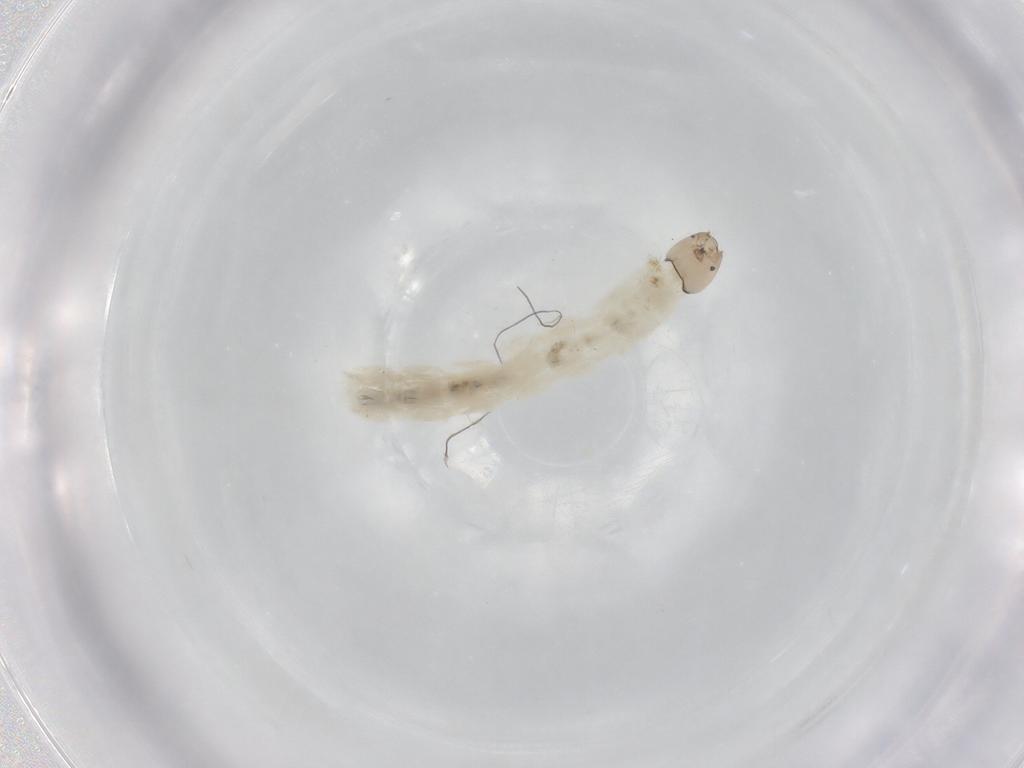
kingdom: Animalia
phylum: Arthropoda
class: Insecta
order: Diptera
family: Chironomidae
